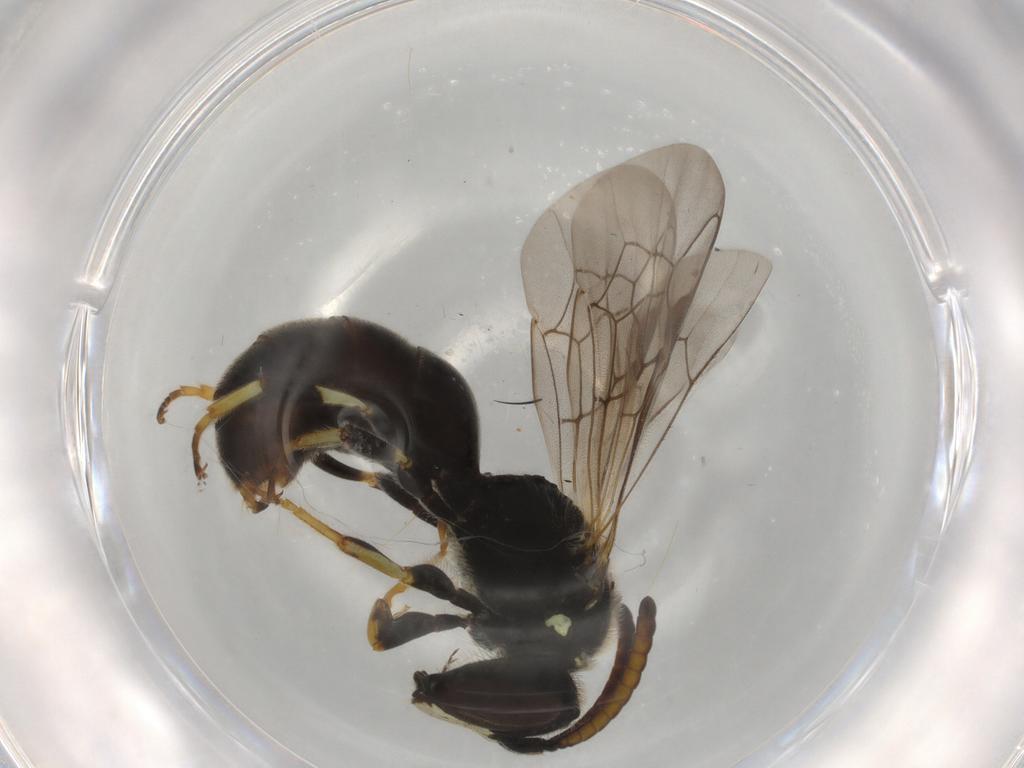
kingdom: Animalia
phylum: Arthropoda
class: Insecta
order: Hymenoptera
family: Colletidae
